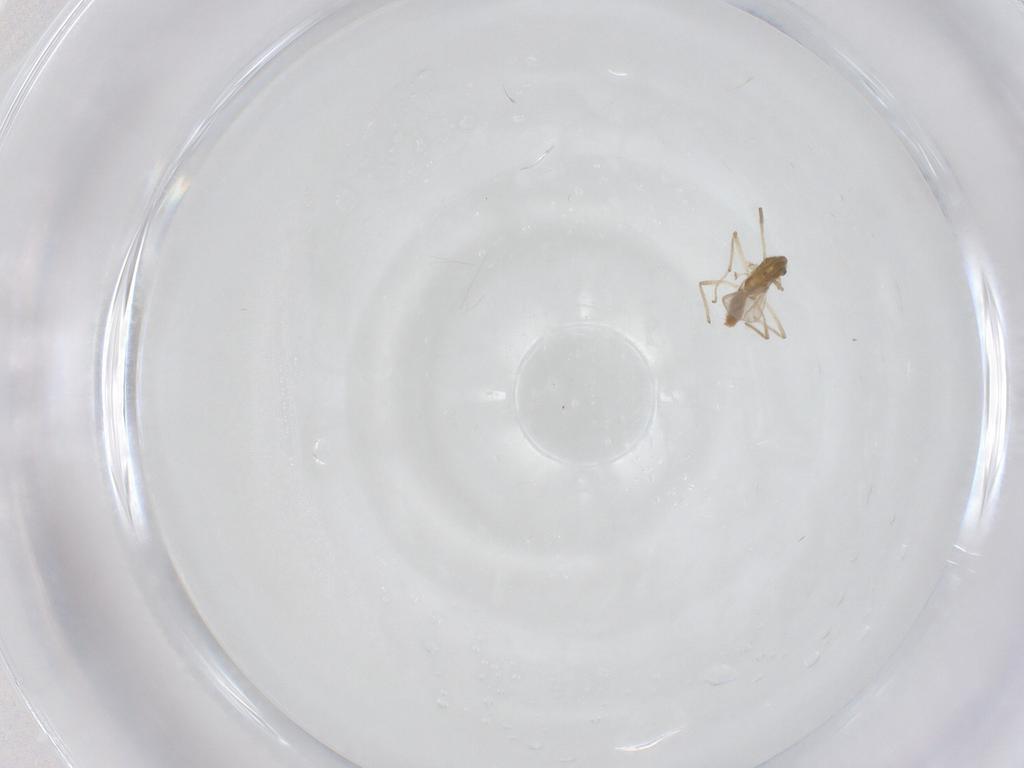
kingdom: Animalia
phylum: Arthropoda
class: Insecta
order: Diptera
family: Chironomidae
